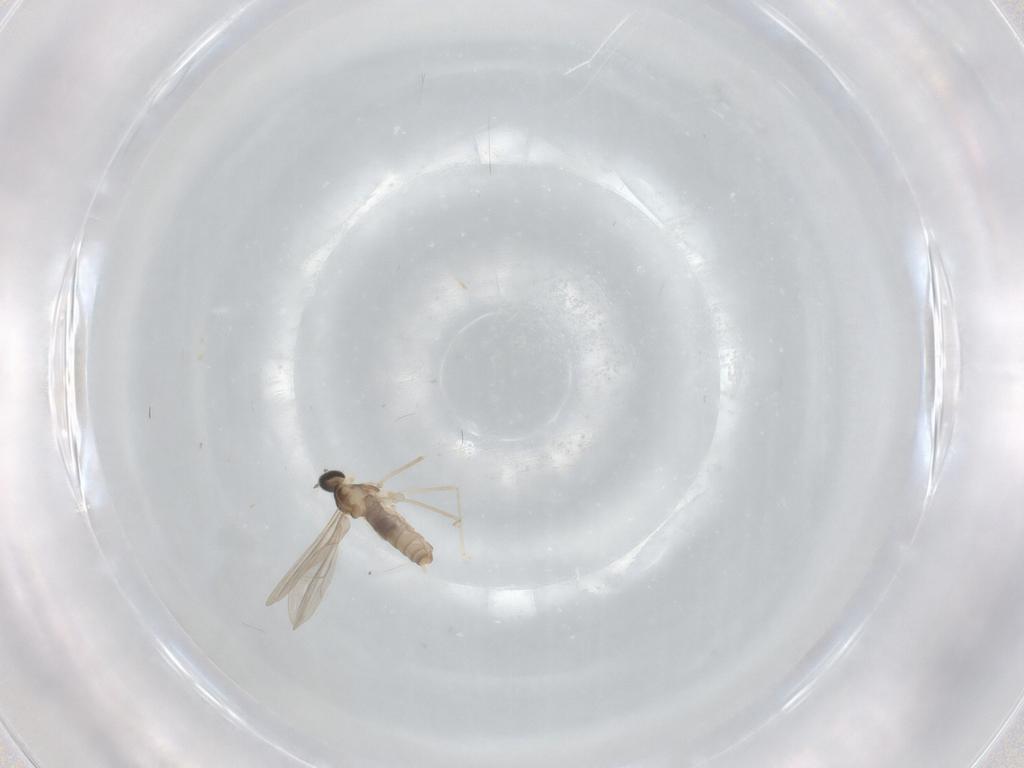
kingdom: Animalia
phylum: Arthropoda
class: Insecta
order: Diptera
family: Cecidomyiidae
